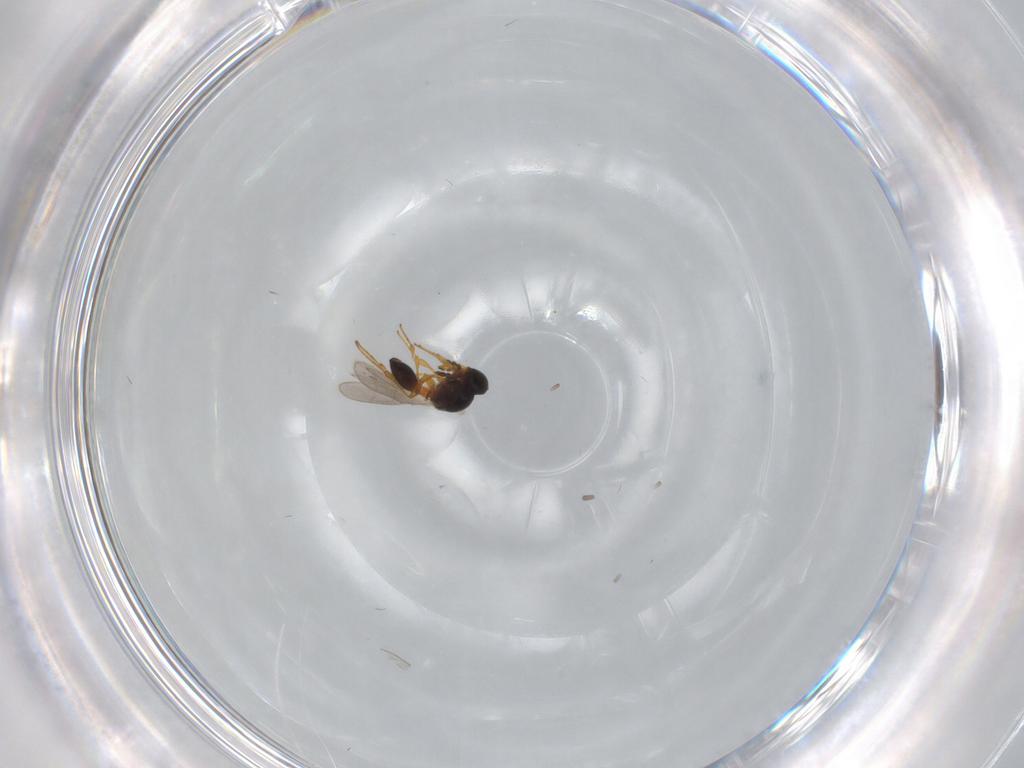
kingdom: Animalia
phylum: Arthropoda
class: Insecta
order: Hymenoptera
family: Platygastridae
